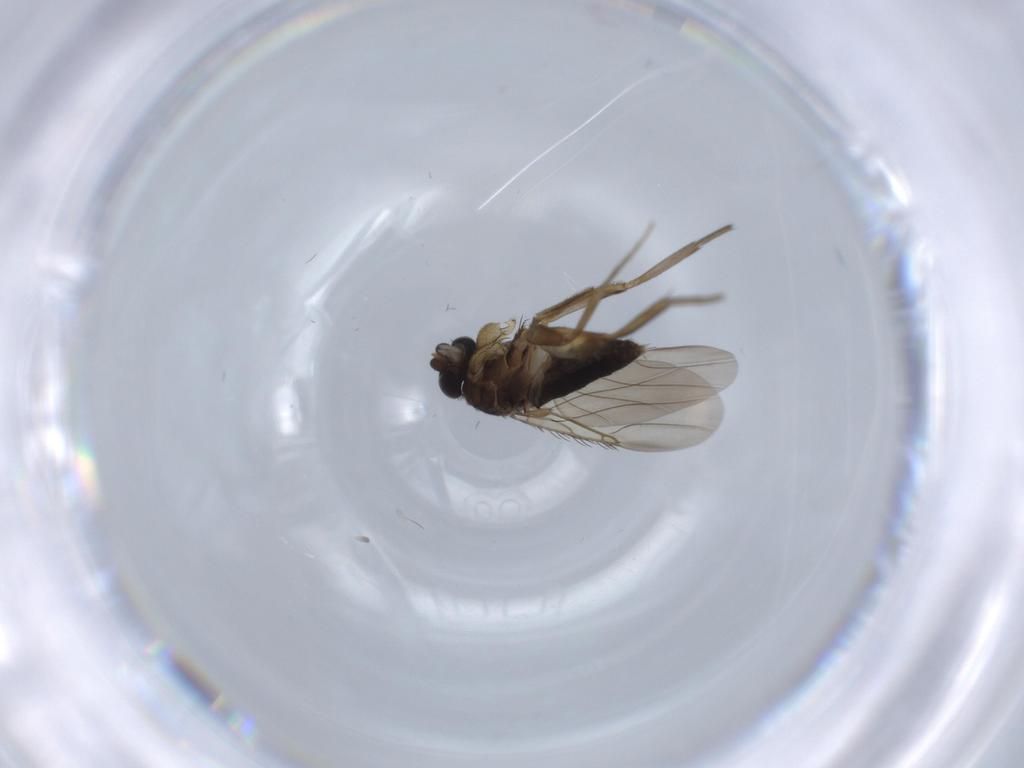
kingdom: Animalia
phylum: Arthropoda
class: Insecta
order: Diptera
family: Phoridae
